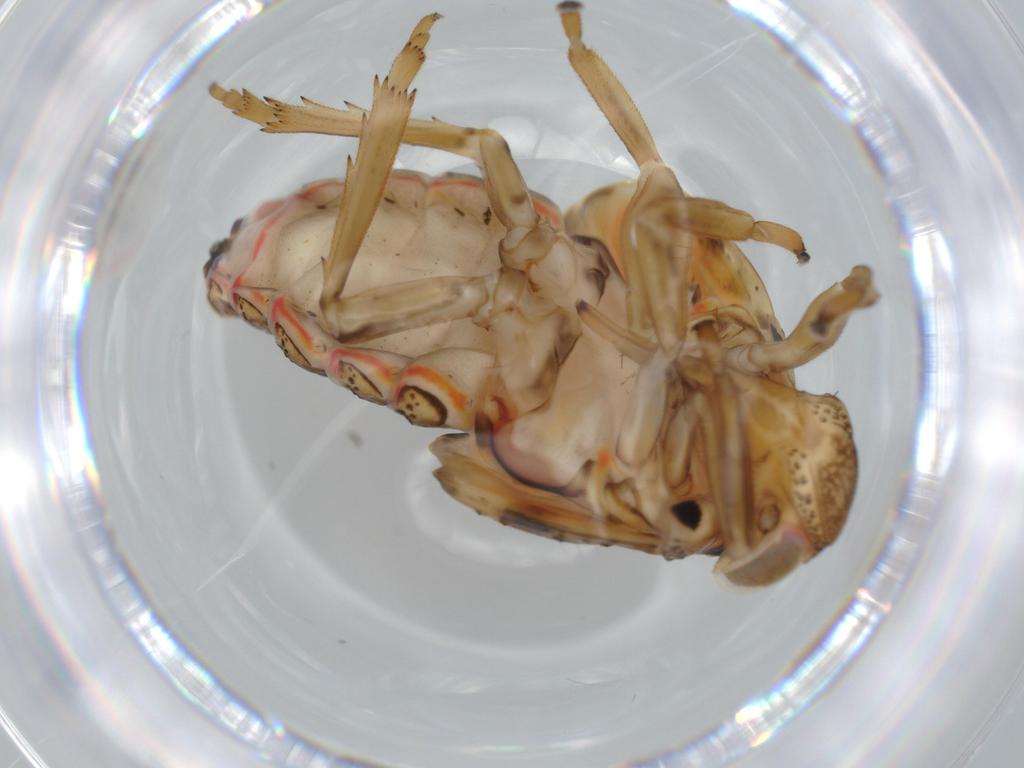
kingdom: Animalia
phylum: Arthropoda
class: Insecta
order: Hemiptera
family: Issidae
